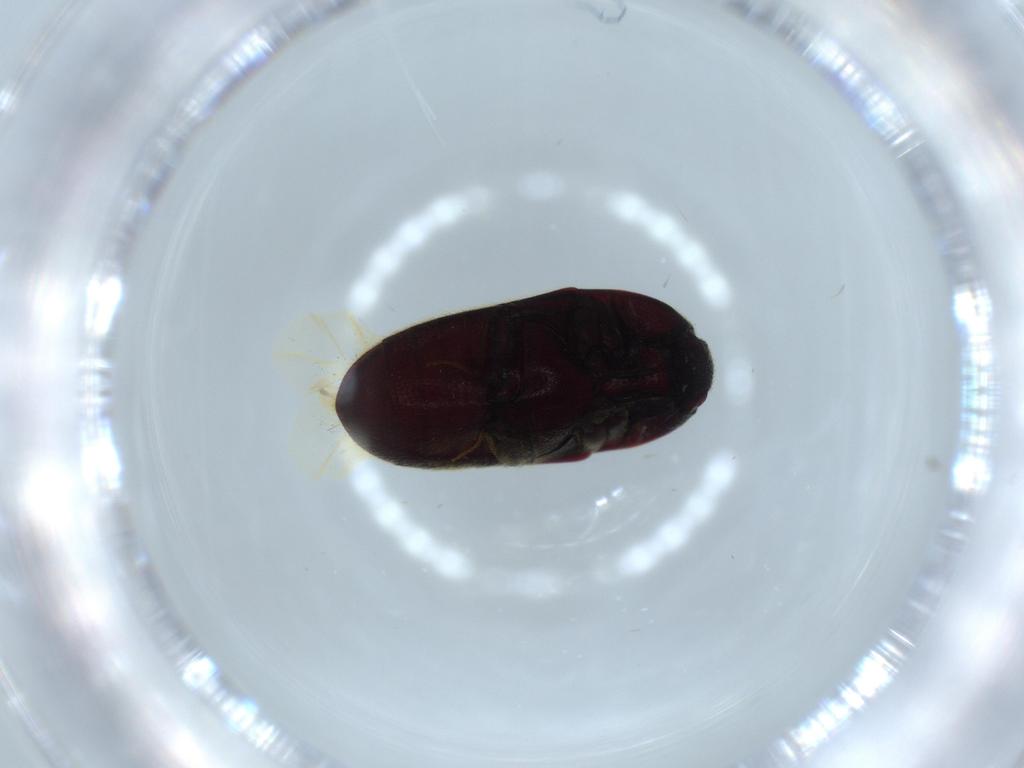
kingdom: Animalia
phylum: Arthropoda
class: Insecta
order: Coleoptera
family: Throscidae
